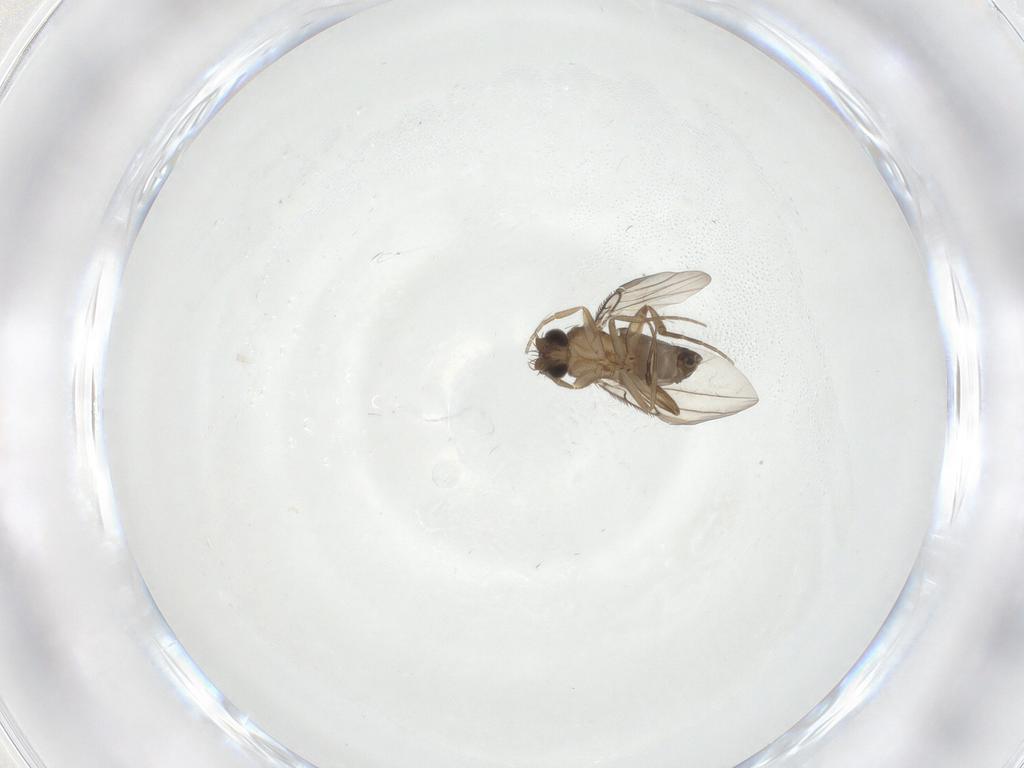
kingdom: Animalia
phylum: Arthropoda
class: Insecta
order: Diptera
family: Phoridae
